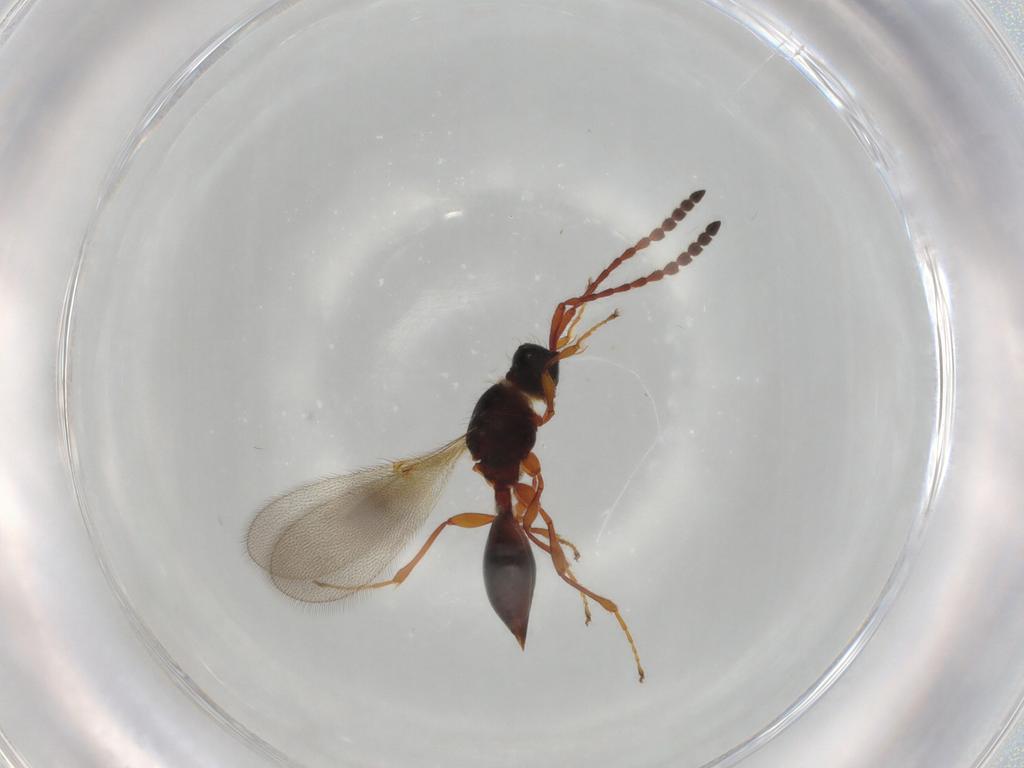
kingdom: Animalia
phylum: Arthropoda
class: Insecta
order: Hymenoptera
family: Diapriidae
